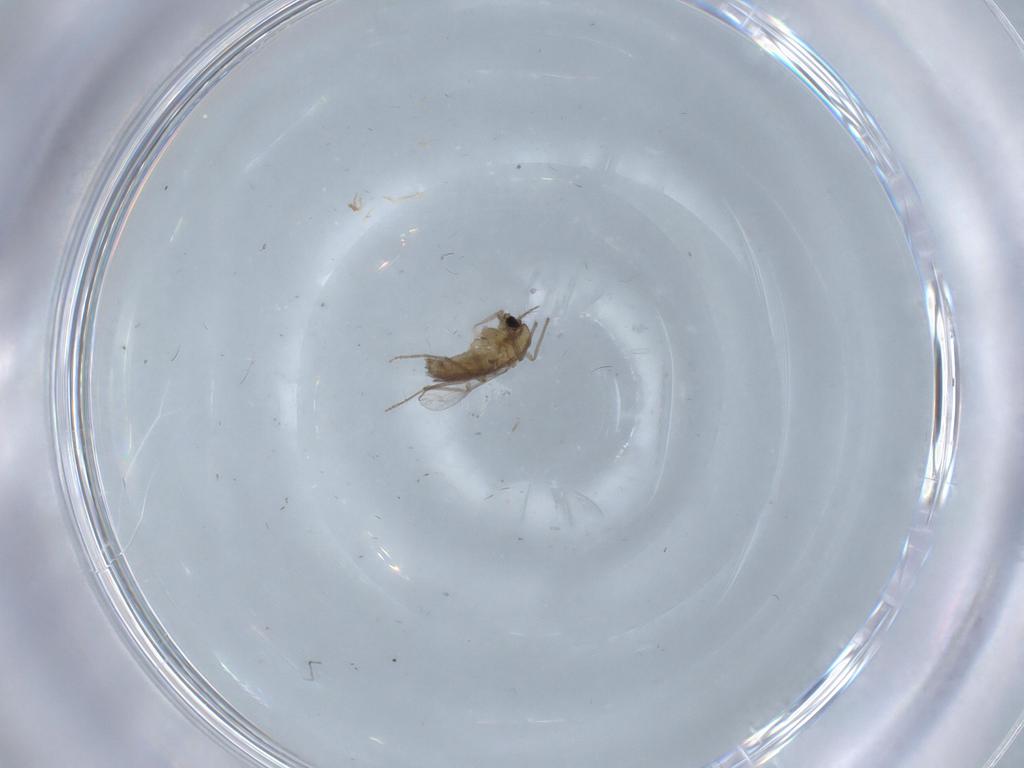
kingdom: Animalia
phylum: Arthropoda
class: Insecta
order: Diptera
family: Chironomidae
